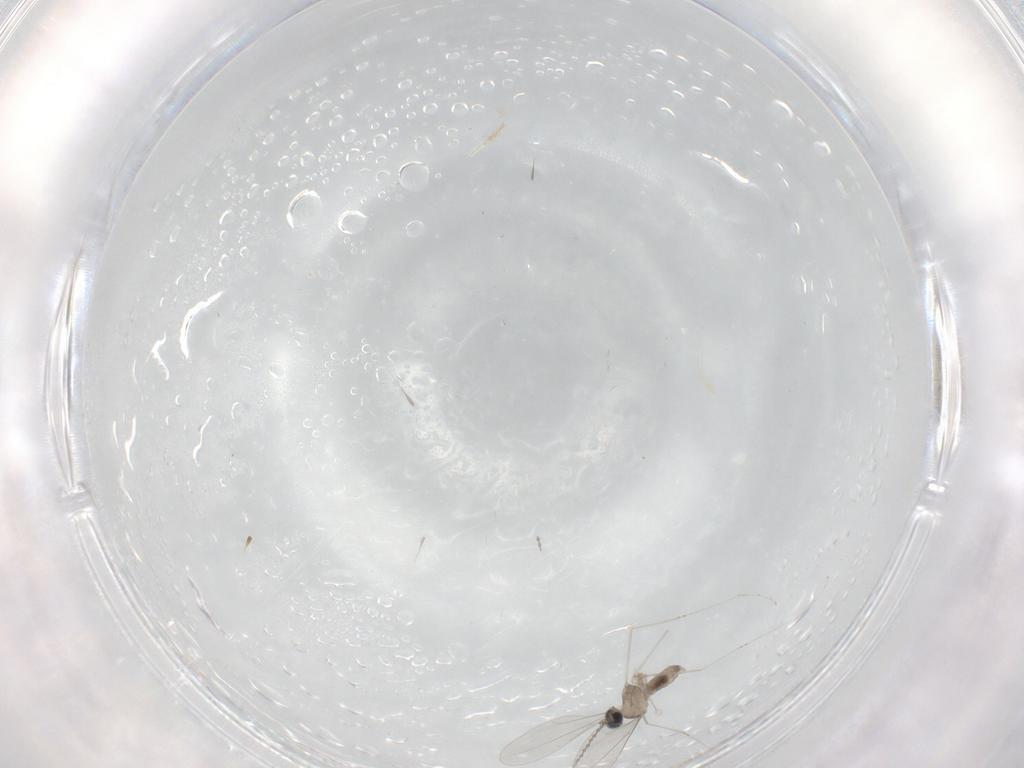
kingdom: Animalia
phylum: Arthropoda
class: Insecta
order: Diptera
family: Cecidomyiidae
